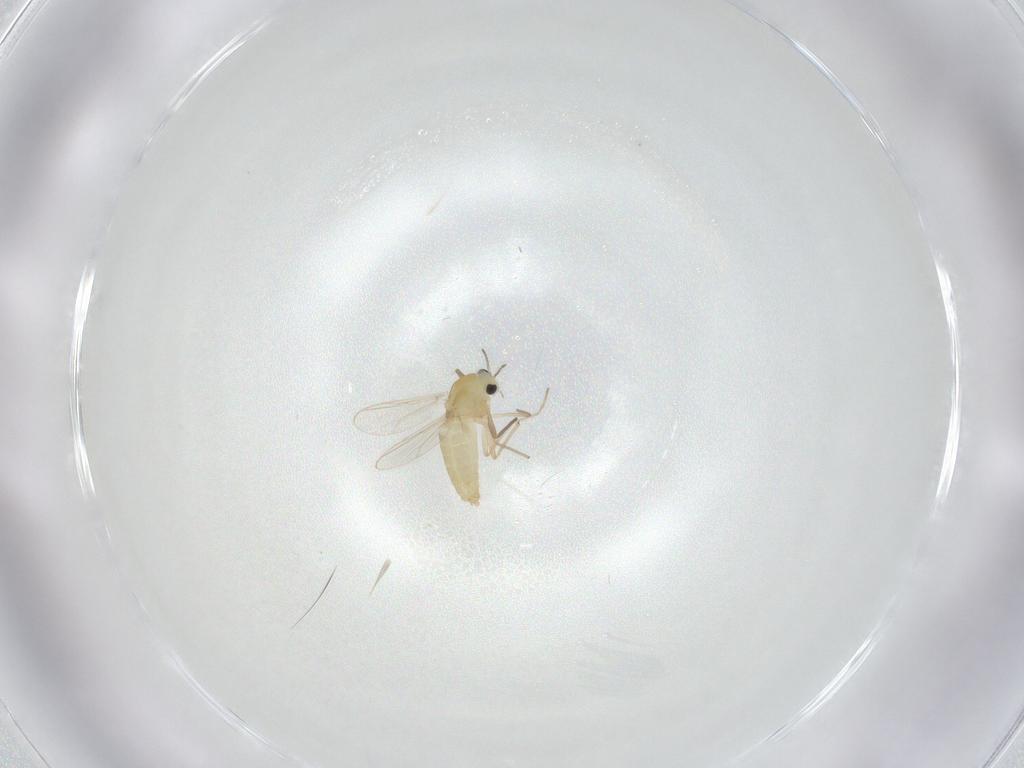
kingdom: Animalia
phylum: Arthropoda
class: Insecta
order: Diptera
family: Chironomidae
